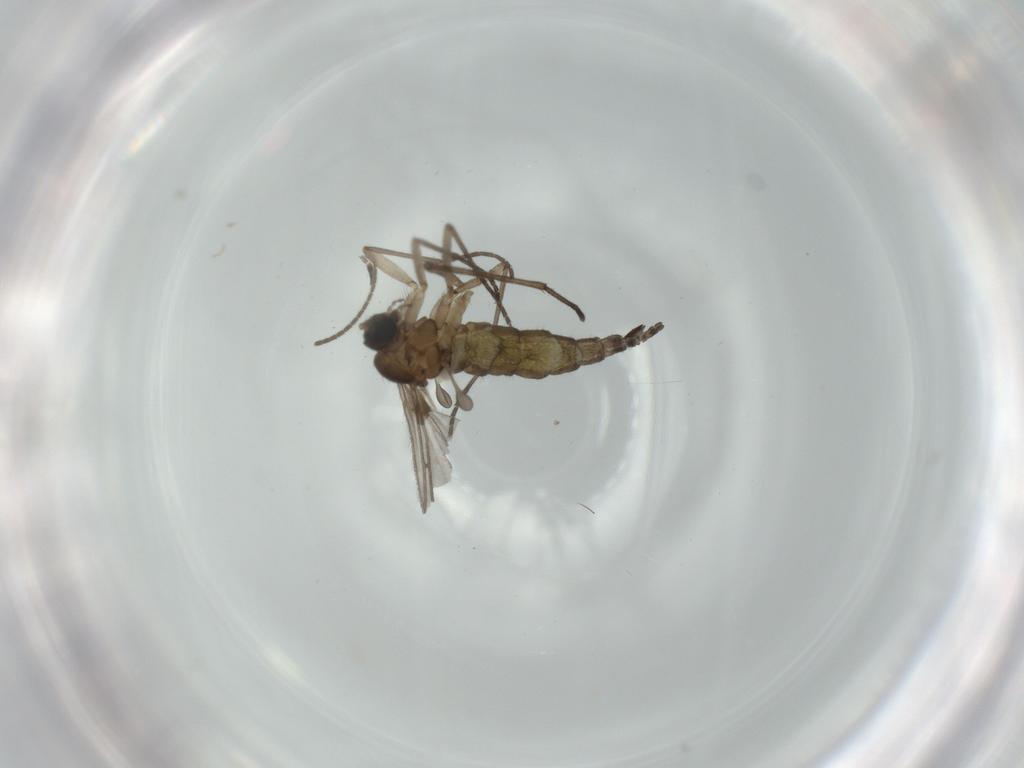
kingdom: Animalia
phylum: Arthropoda
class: Insecta
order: Diptera
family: Sciaridae
